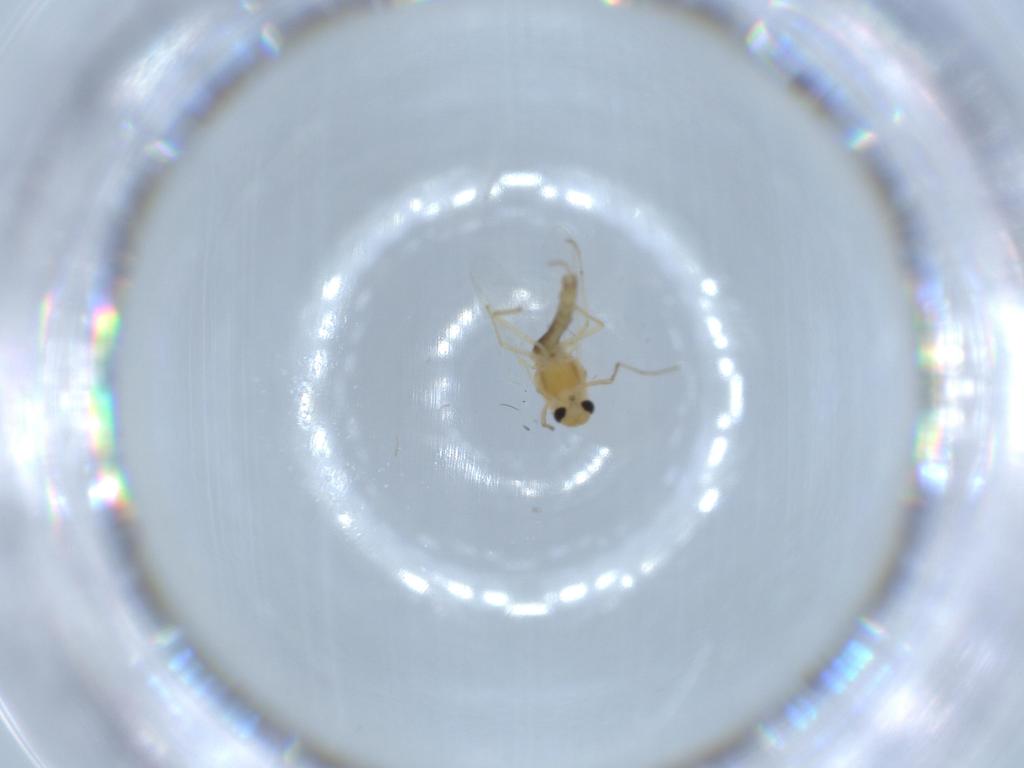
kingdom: Animalia
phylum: Arthropoda
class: Insecta
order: Diptera
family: Chironomidae
